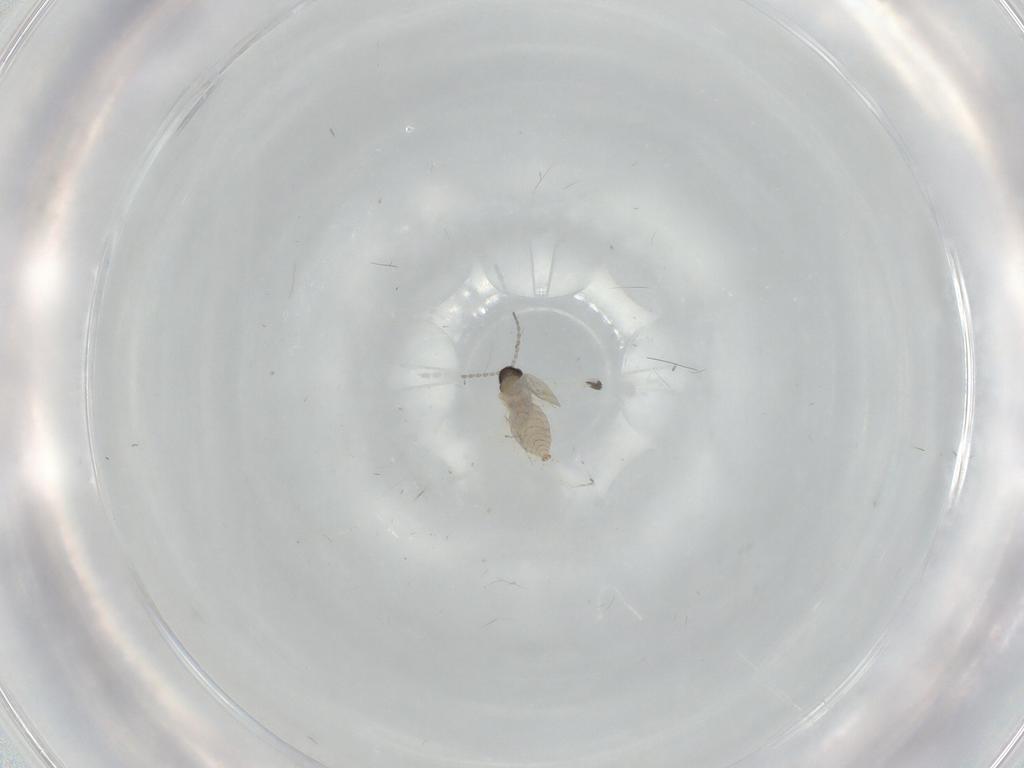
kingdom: Animalia
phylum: Arthropoda
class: Insecta
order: Diptera
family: Cecidomyiidae
